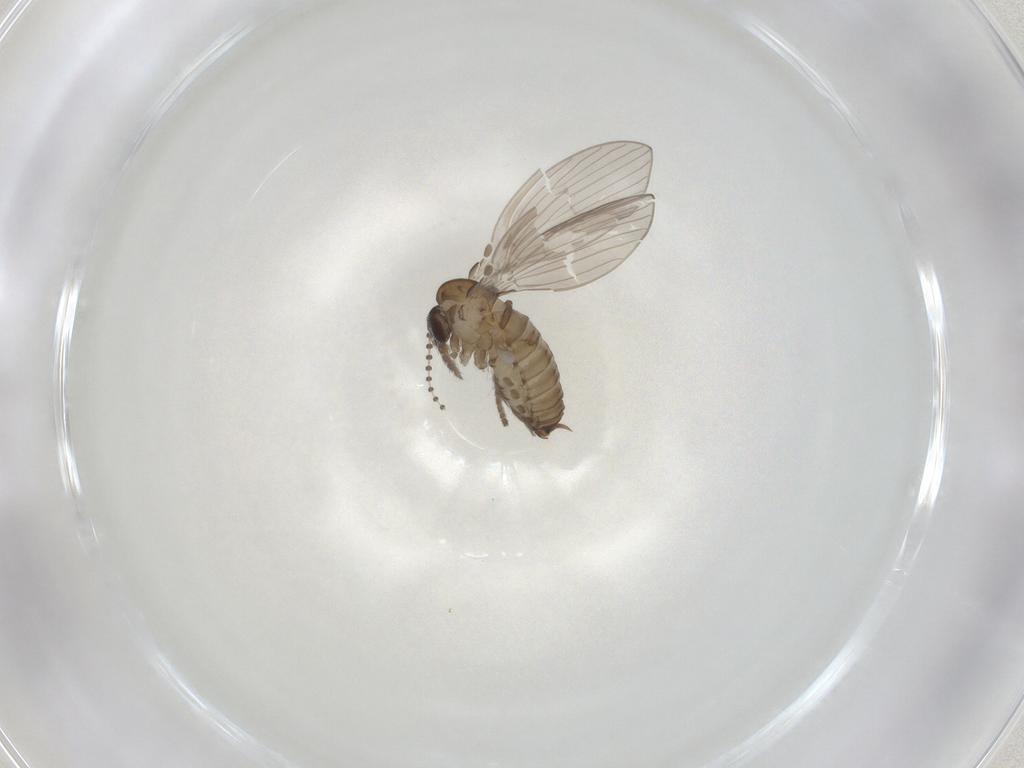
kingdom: Animalia
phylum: Arthropoda
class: Insecta
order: Diptera
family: Psychodidae
